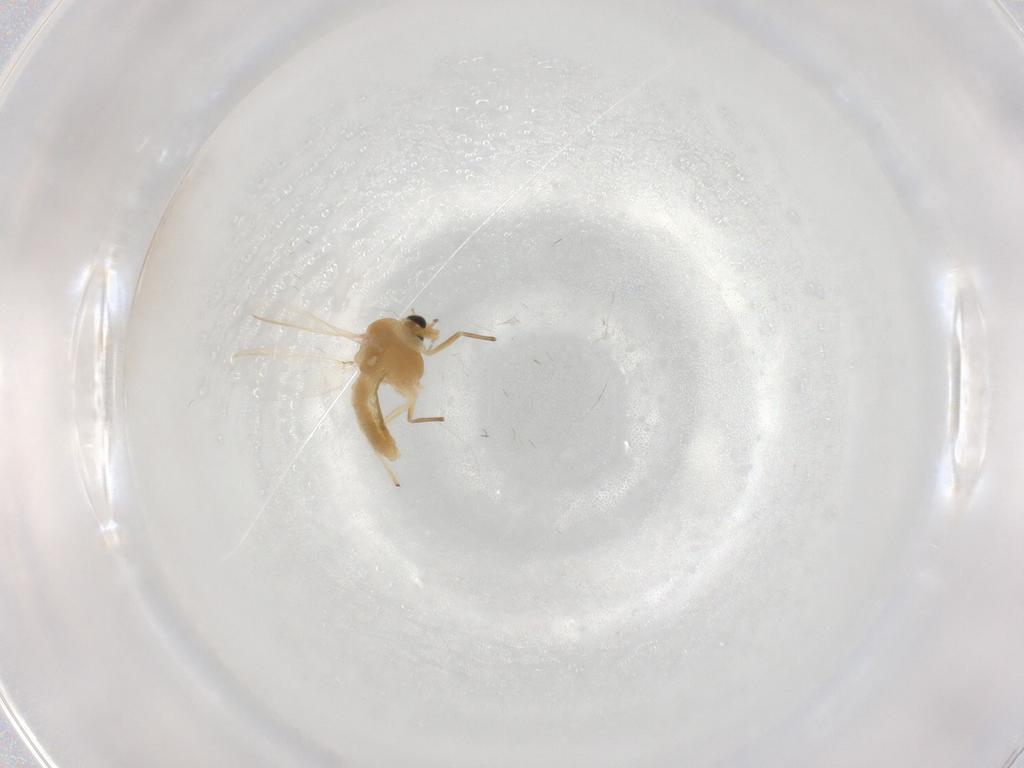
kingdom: Animalia
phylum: Arthropoda
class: Insecta
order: Diptera
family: Chironomidae
